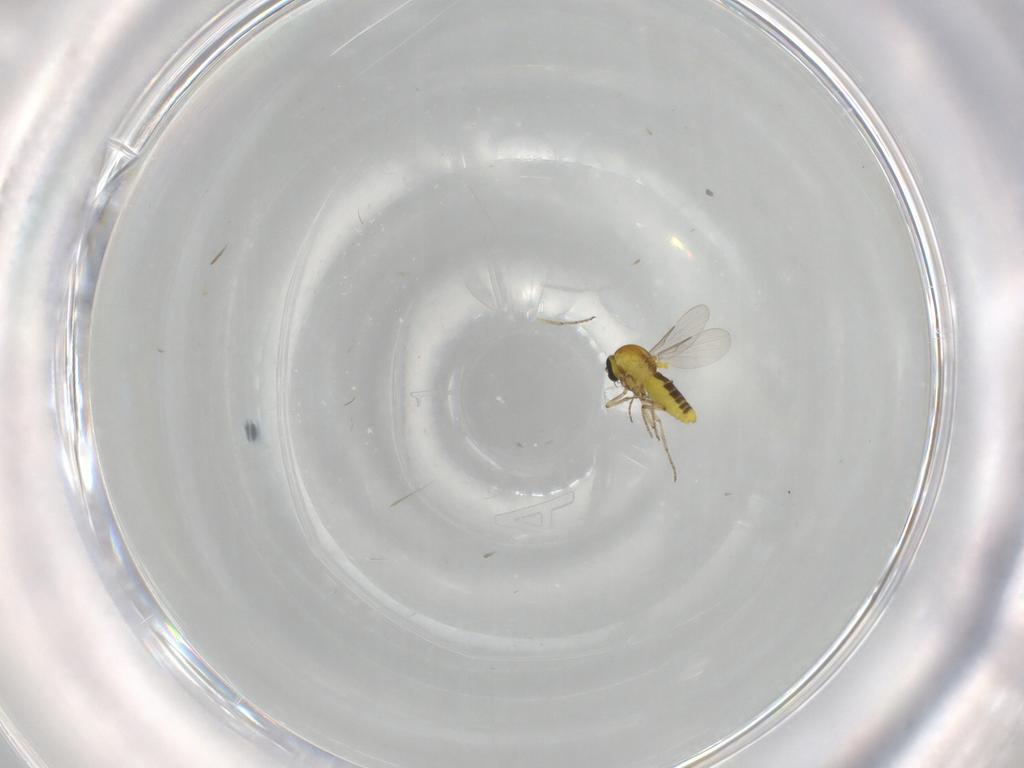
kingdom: Animalia
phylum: Arthropoda
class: Insecta
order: Diptera
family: Ceratopogonidae
